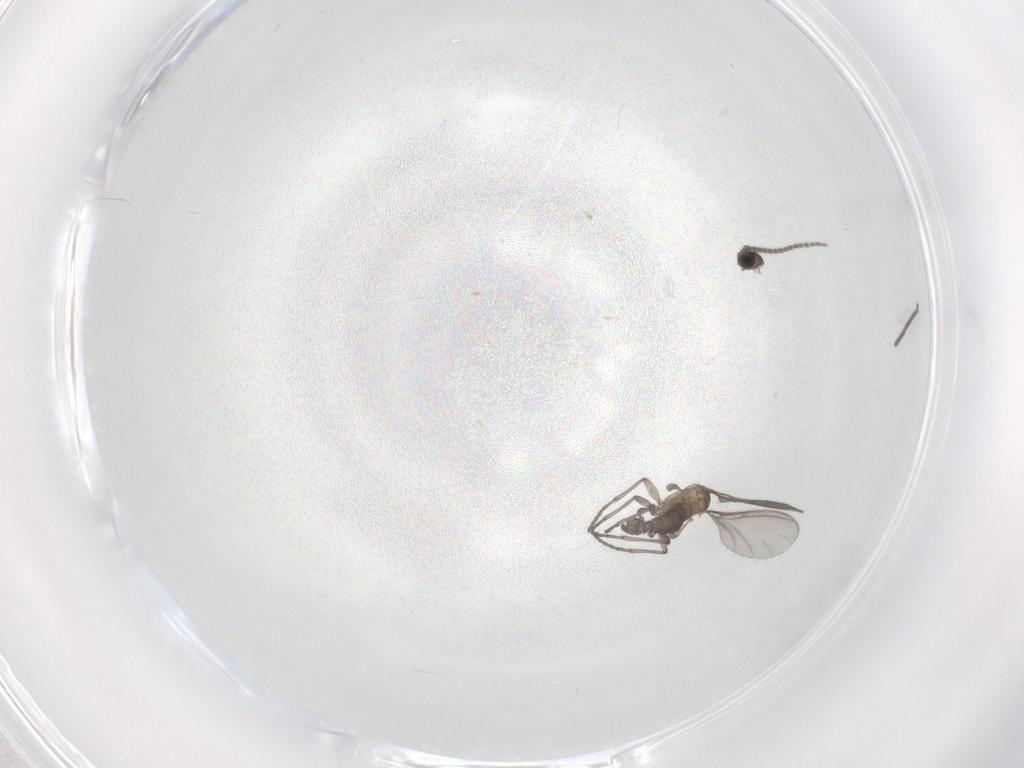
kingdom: Animalia
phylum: Arthropoda
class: Insecta
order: Diptera
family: Sciaridae
